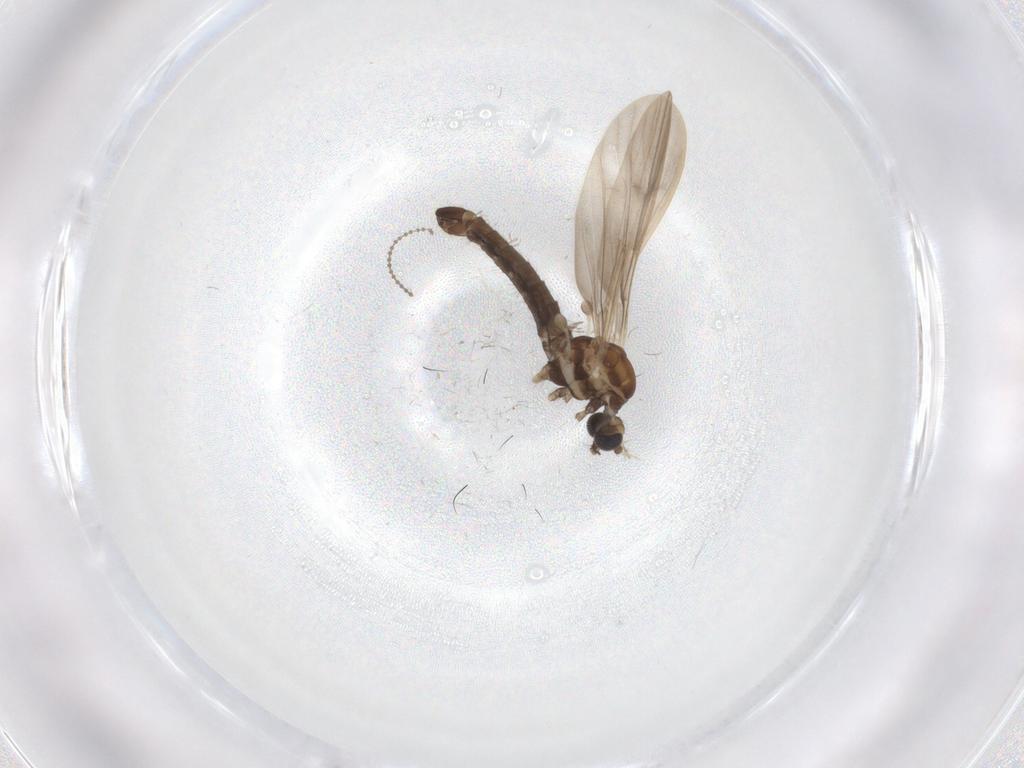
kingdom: Animalia
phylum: Arthropoda
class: Insecta
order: Diptera
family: Limoniidae
